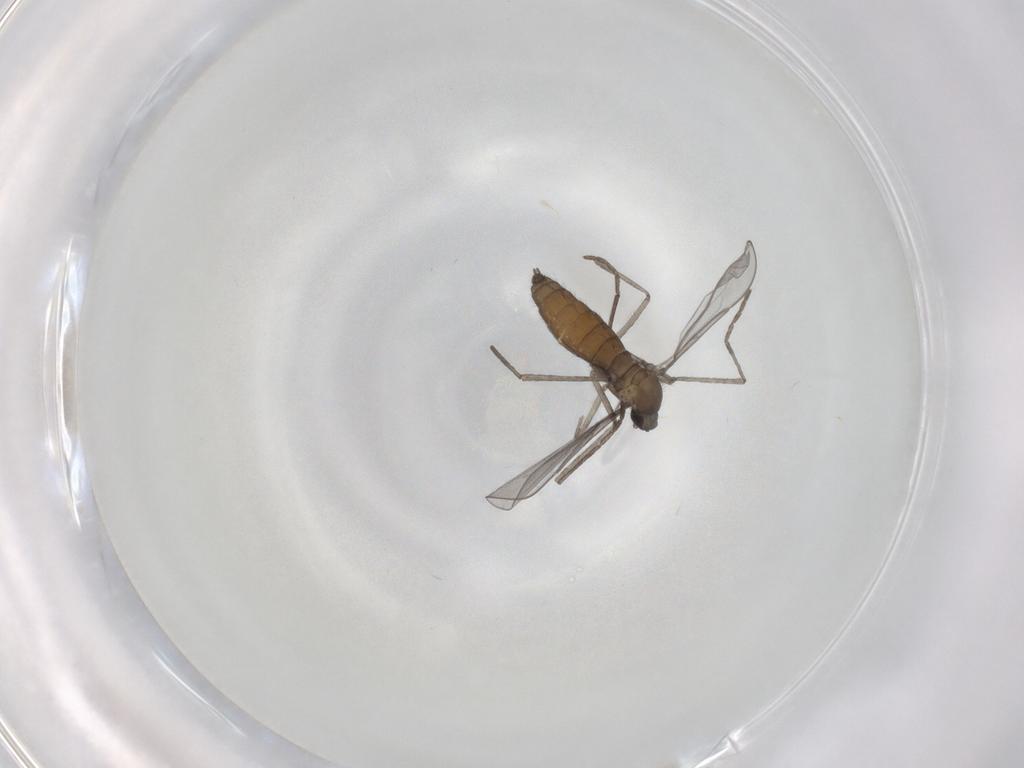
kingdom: Animalia
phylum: Arthropoda
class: Insecta
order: Diptera
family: Cecidomyiidae
